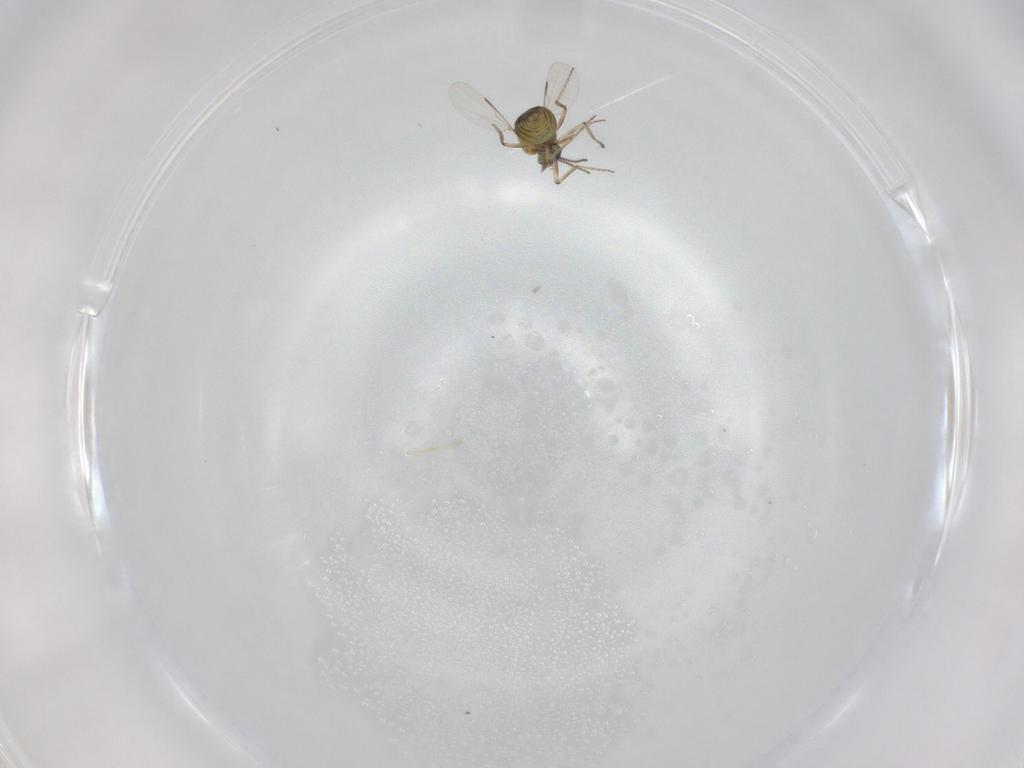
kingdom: Animalia
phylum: Arthropoda
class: Insecta
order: Diptera
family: Ceratopogonidae
